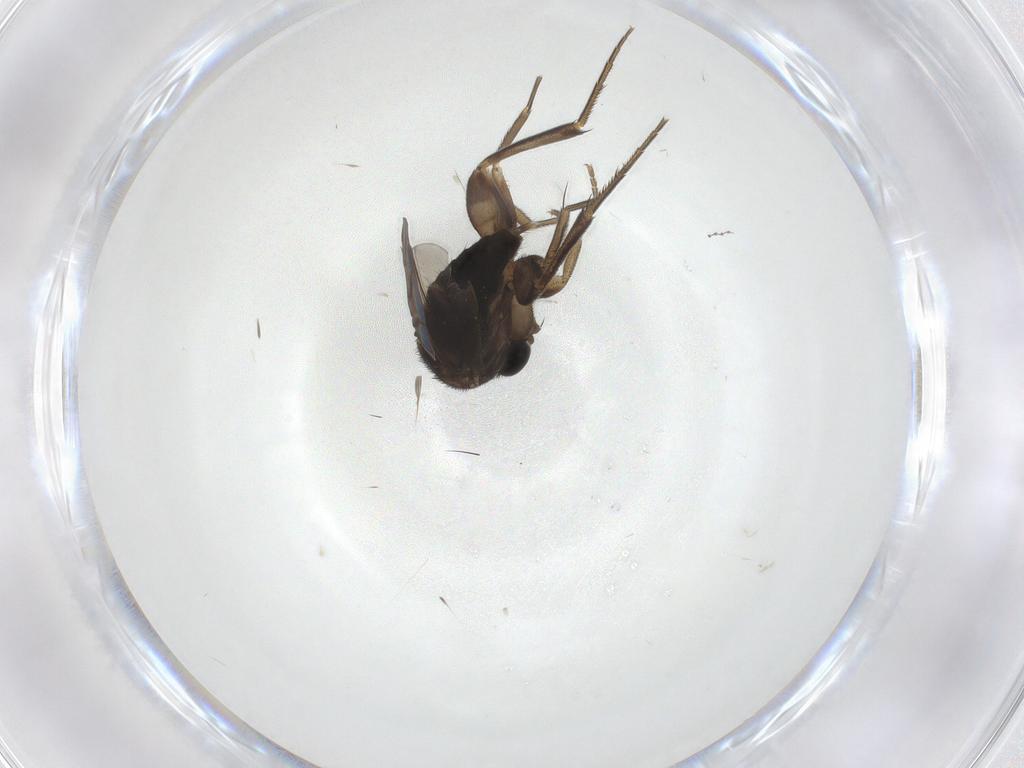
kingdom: Animalia
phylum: Arthropoda
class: Insecta
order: Diptera
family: Phoridae
